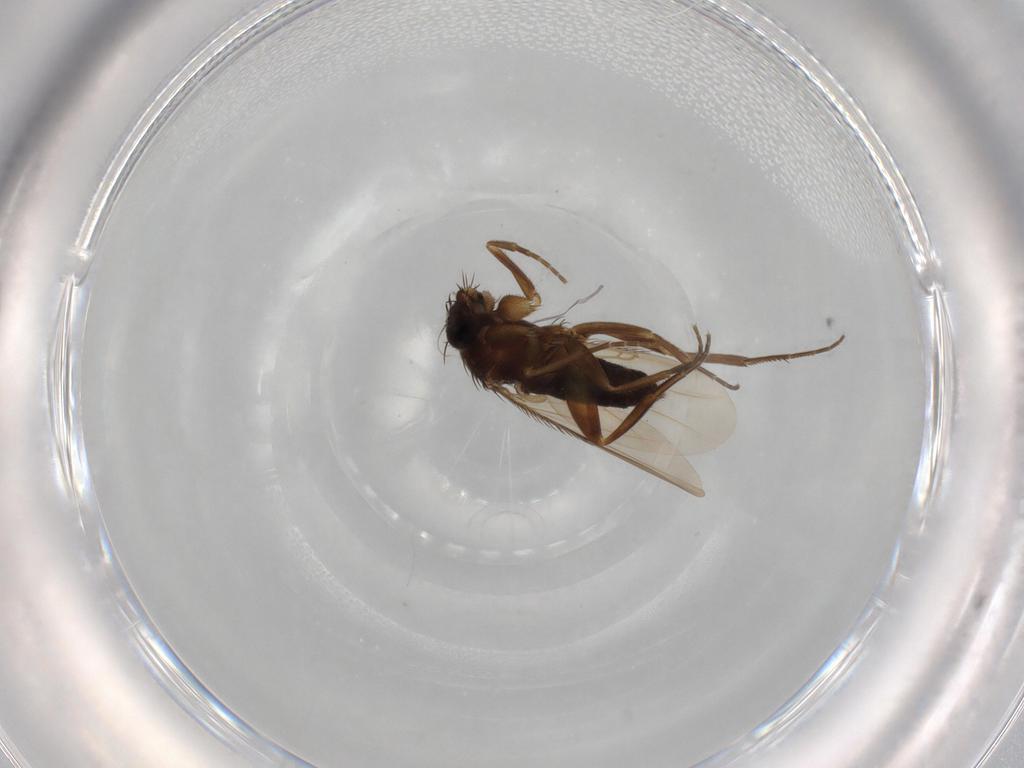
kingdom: Animalia
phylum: Arthropoda
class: Insecta
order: Diptera
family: Phoridae
